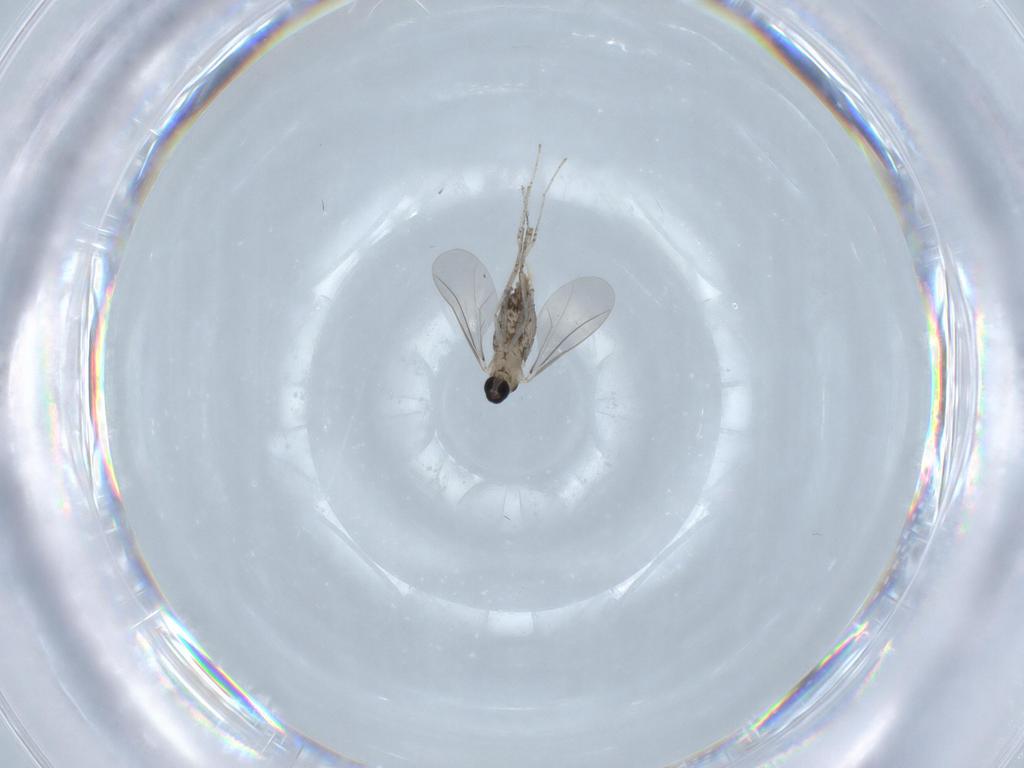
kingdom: Animalia
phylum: Arthropoda
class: Insecta
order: Diptera
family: Cecidomyiidae
